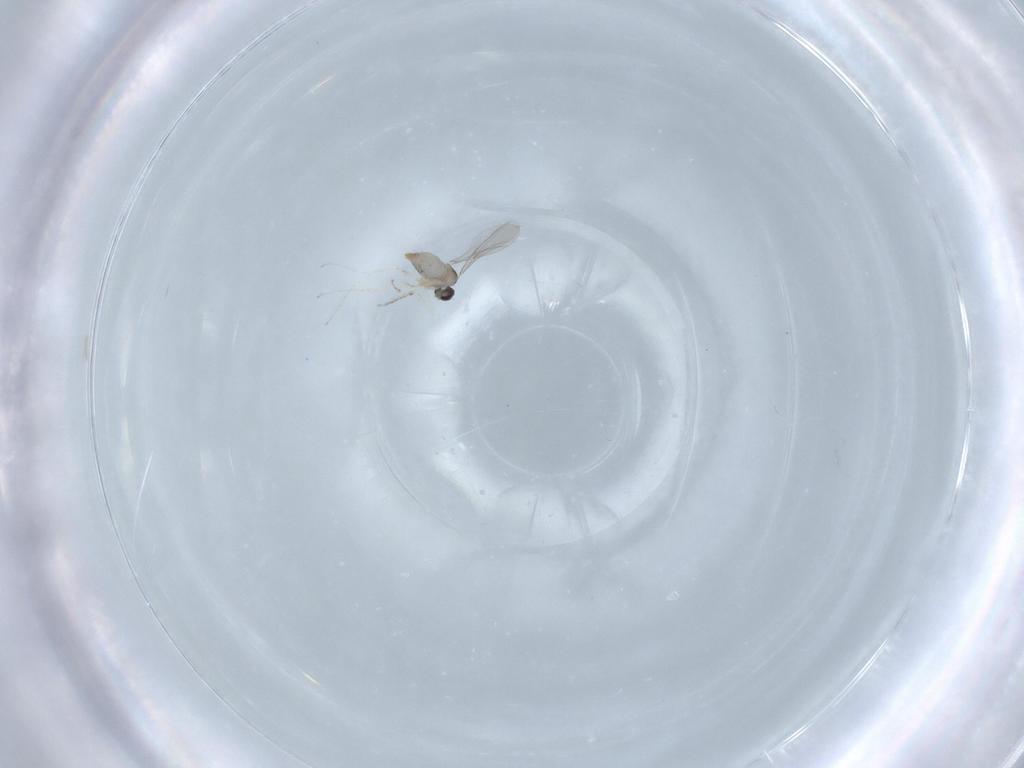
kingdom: Animalia
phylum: Arthropoda
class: Insecta
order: Diptera
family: Cecidomyiidae
